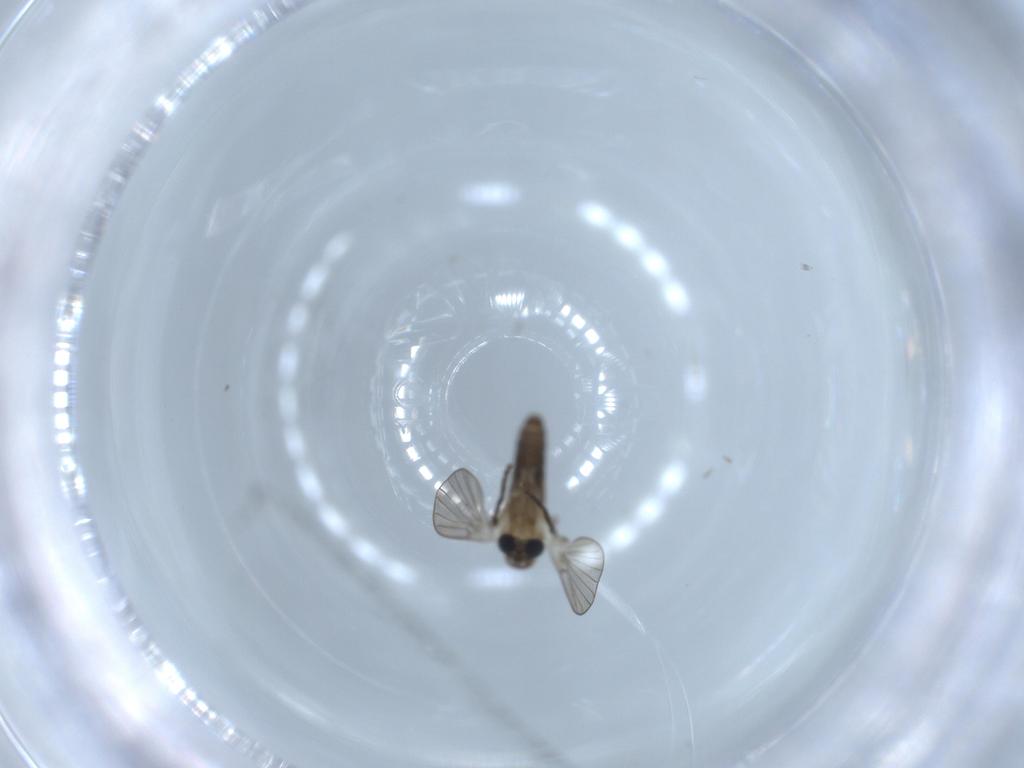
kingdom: Animalia
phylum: Arthropoda
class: Insecta
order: Diptera
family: Psychodidae
